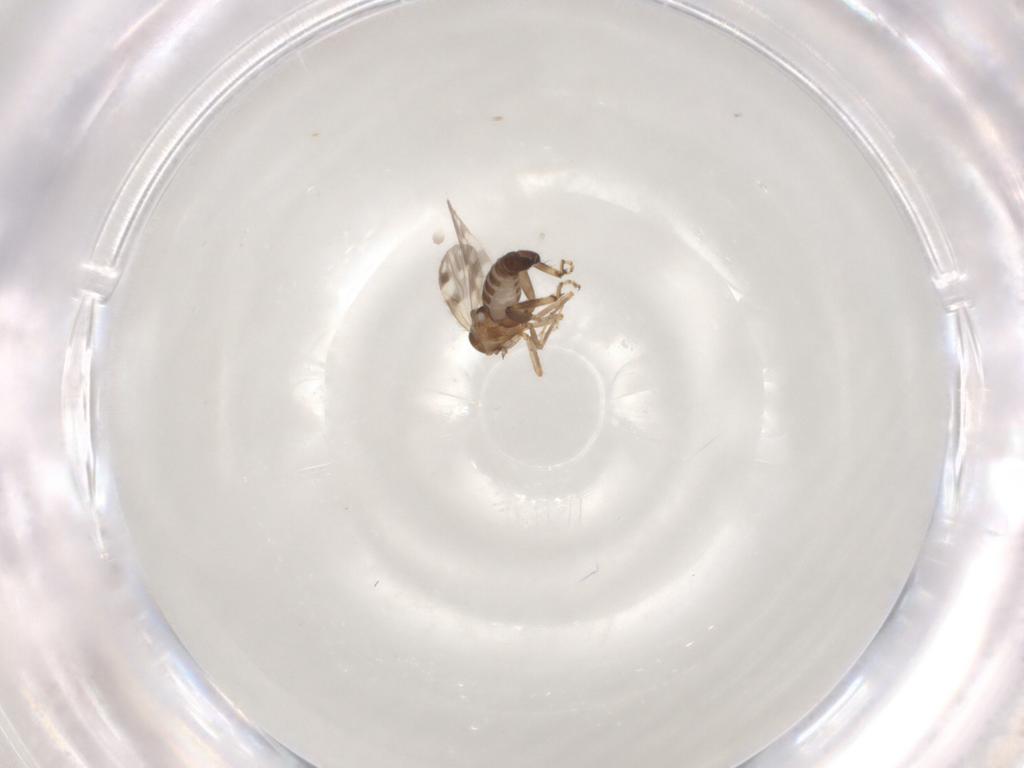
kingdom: Animalia
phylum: Arthropoda
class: Insecta
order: Diptera
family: Ceratopogonidae
